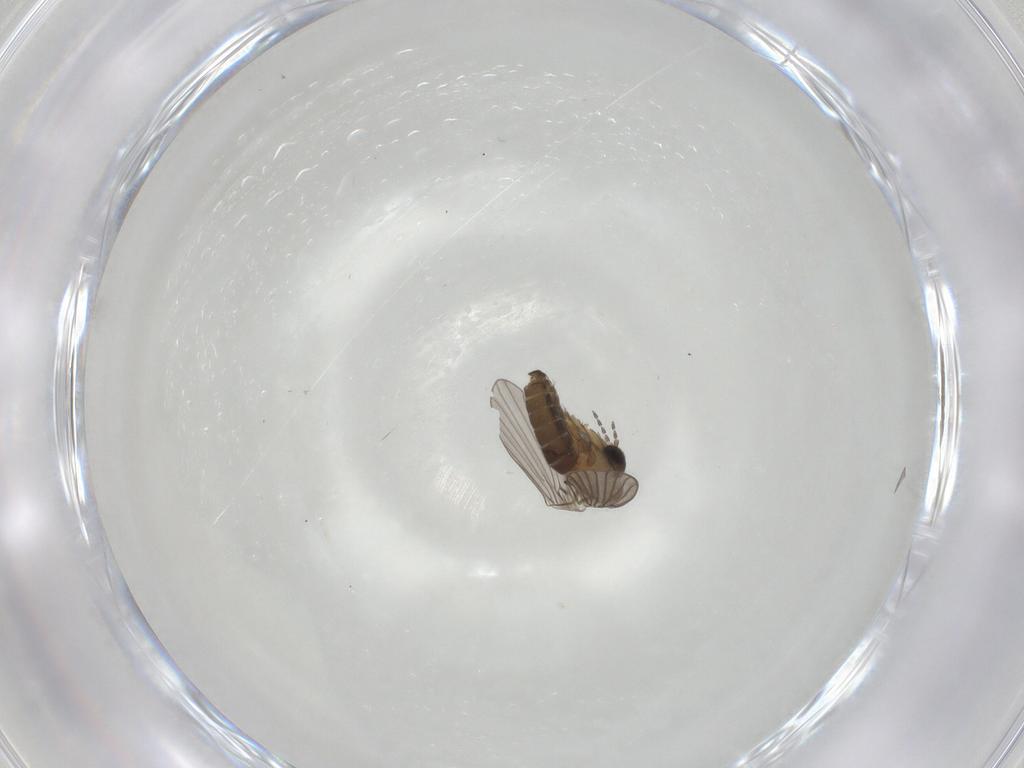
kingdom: Animalia
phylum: Arthropoda
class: Insecta
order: Diptera
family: Psychodidae
